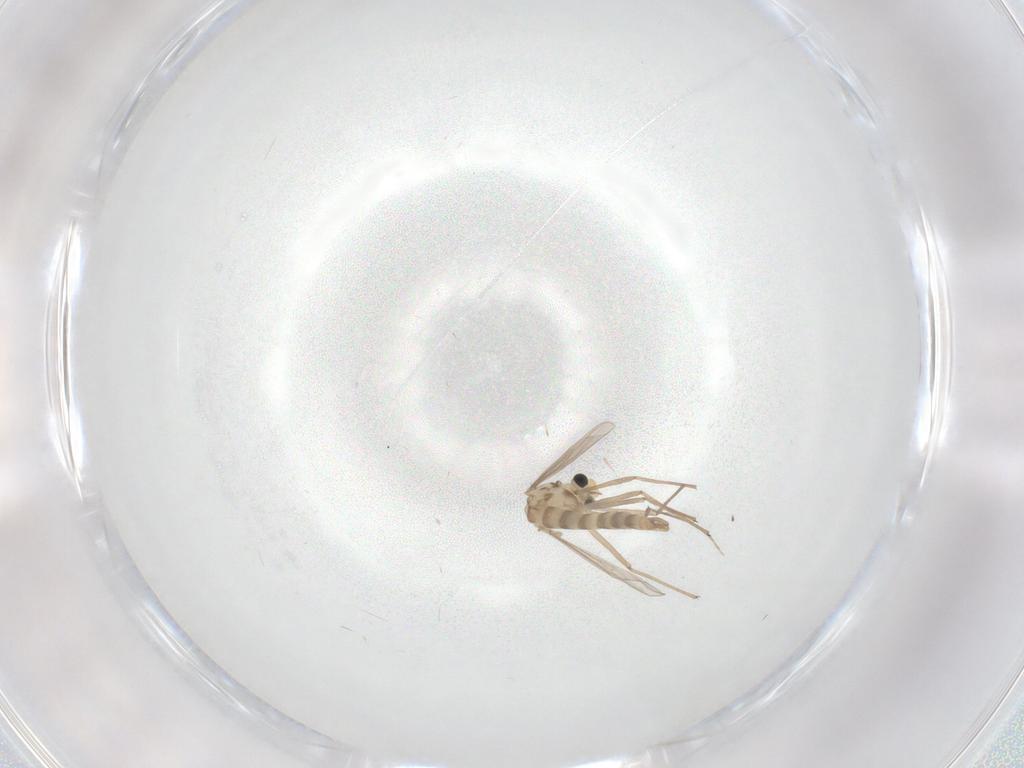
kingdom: Animalia
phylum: Arthropoda
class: Insecta
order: Diptera
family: Chironomidae
